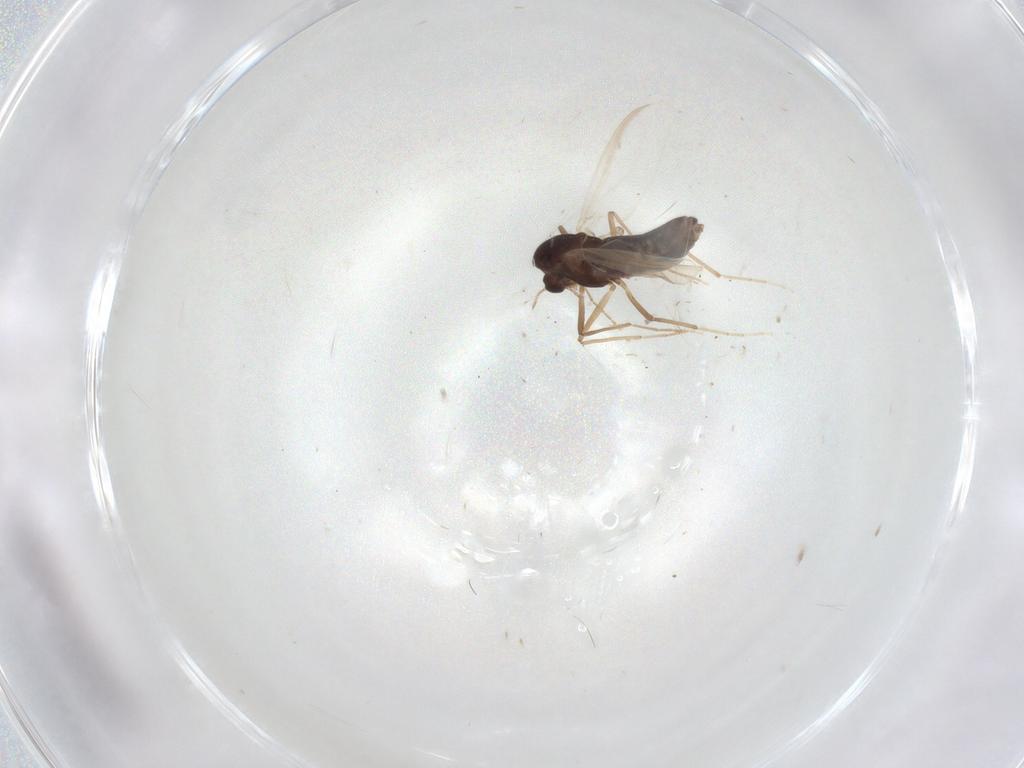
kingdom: Animalia
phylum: Arthropoda
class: Insecta
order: Diptera
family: Chironomidae
